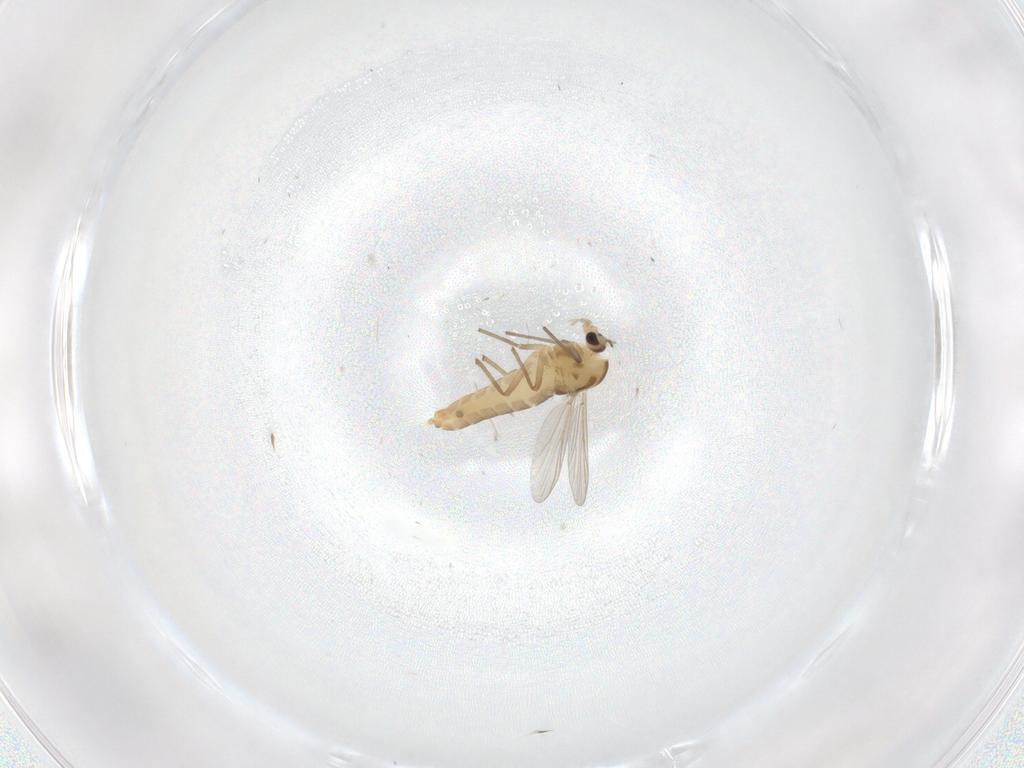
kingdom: Animalia
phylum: Arthropoda
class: Insecta
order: Diptera
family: Chironomidae
